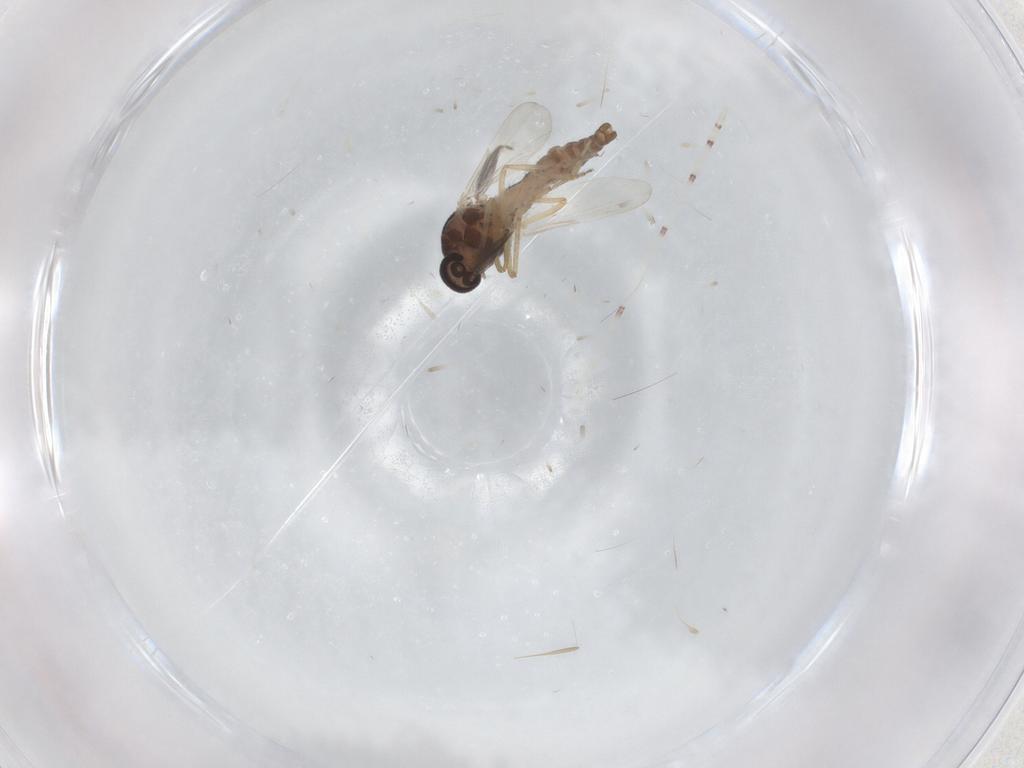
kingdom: Animalia
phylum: Arthropoda
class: Insecta
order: Diptera
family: Ceratopogonidae
